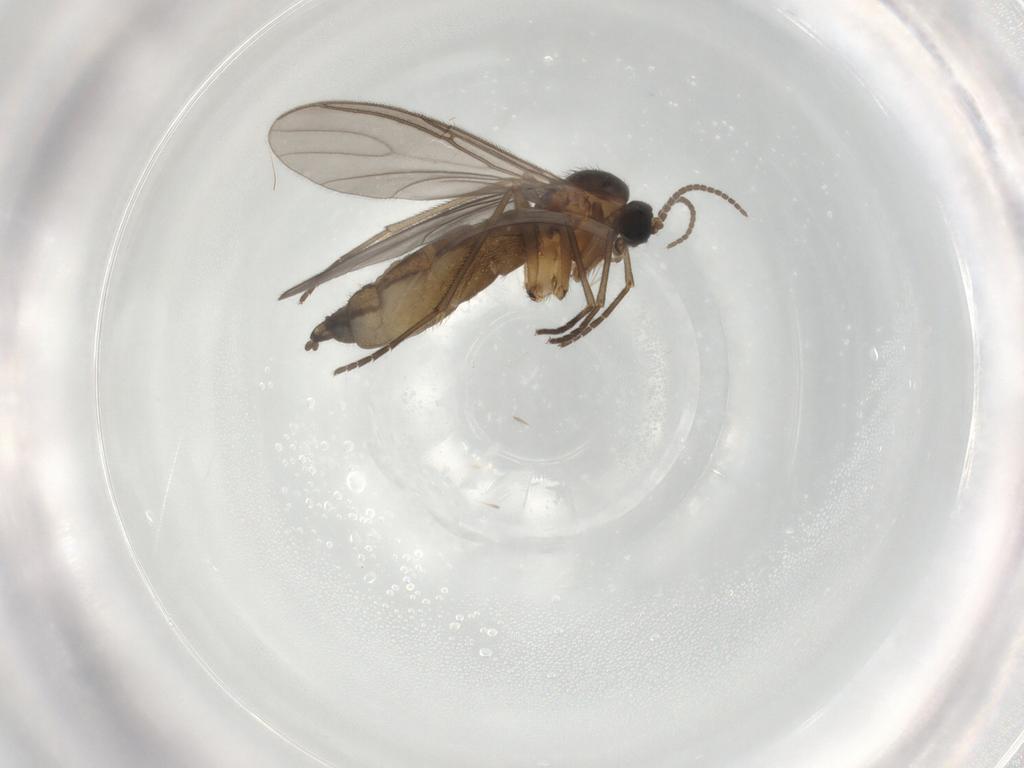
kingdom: Animalia
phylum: Arthropoda
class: Insecta
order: Diptera
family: Sciaridae
